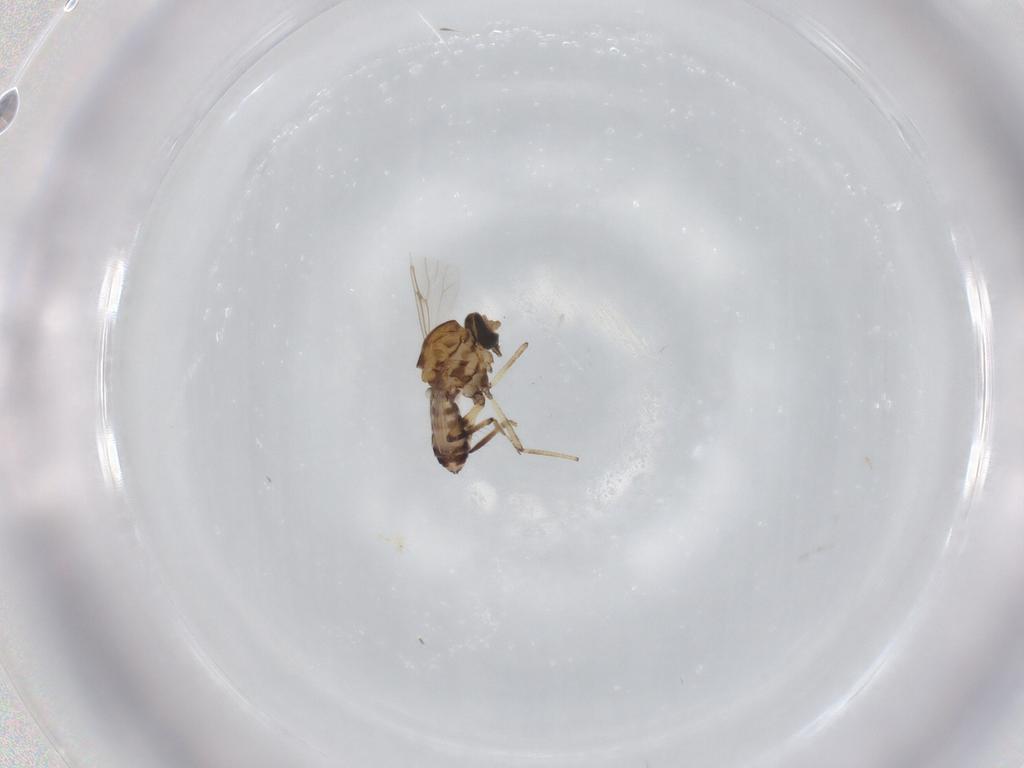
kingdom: Animalia
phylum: Arthropoda
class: Insecta
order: Diptera
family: Ceratopogonidae
